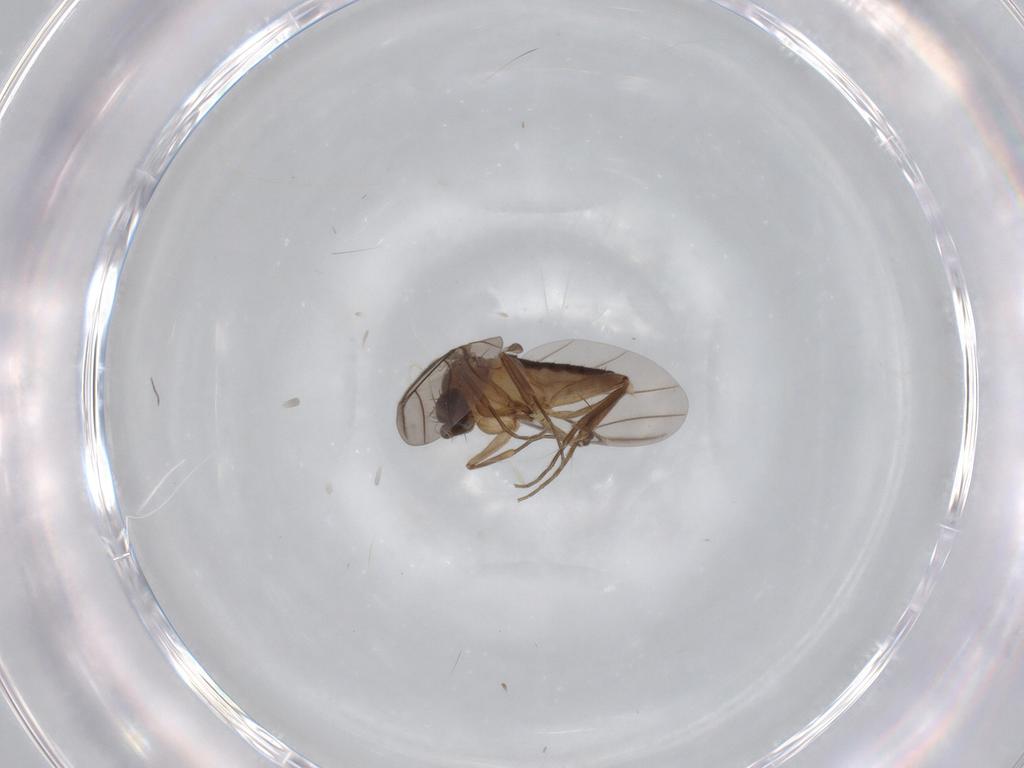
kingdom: Animalia
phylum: Arthropoda
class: Insecta
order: Diptera
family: Phoridae
